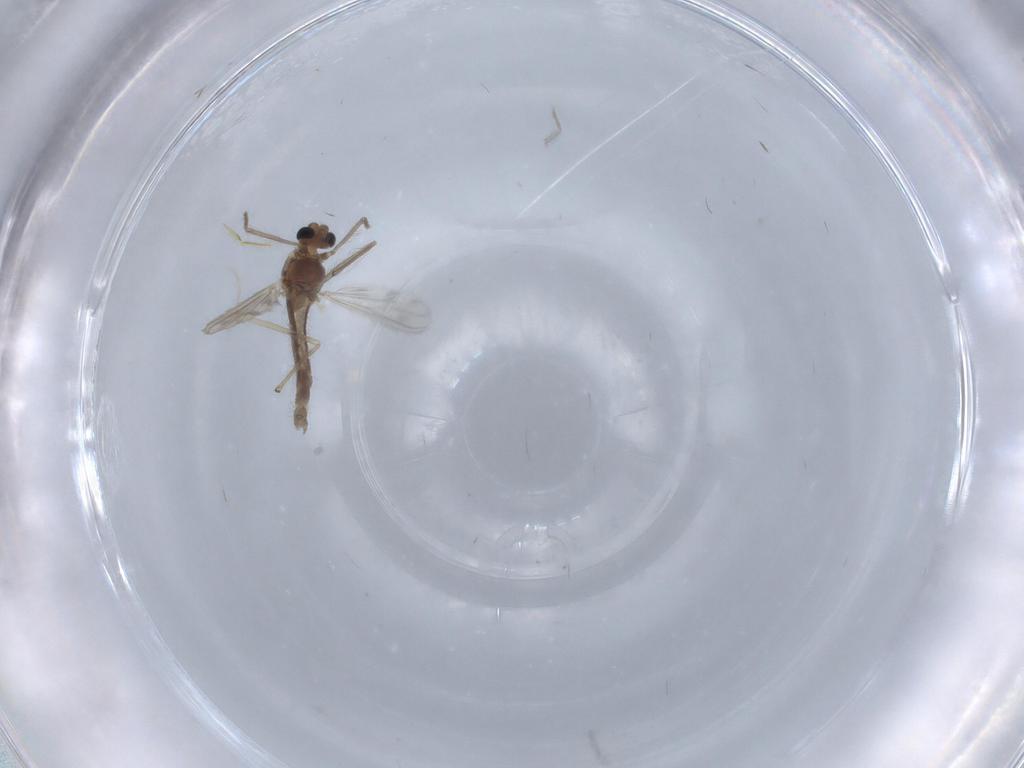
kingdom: Animalia
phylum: Arthropoda
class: Insecta
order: Diptera
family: Chironomidae
